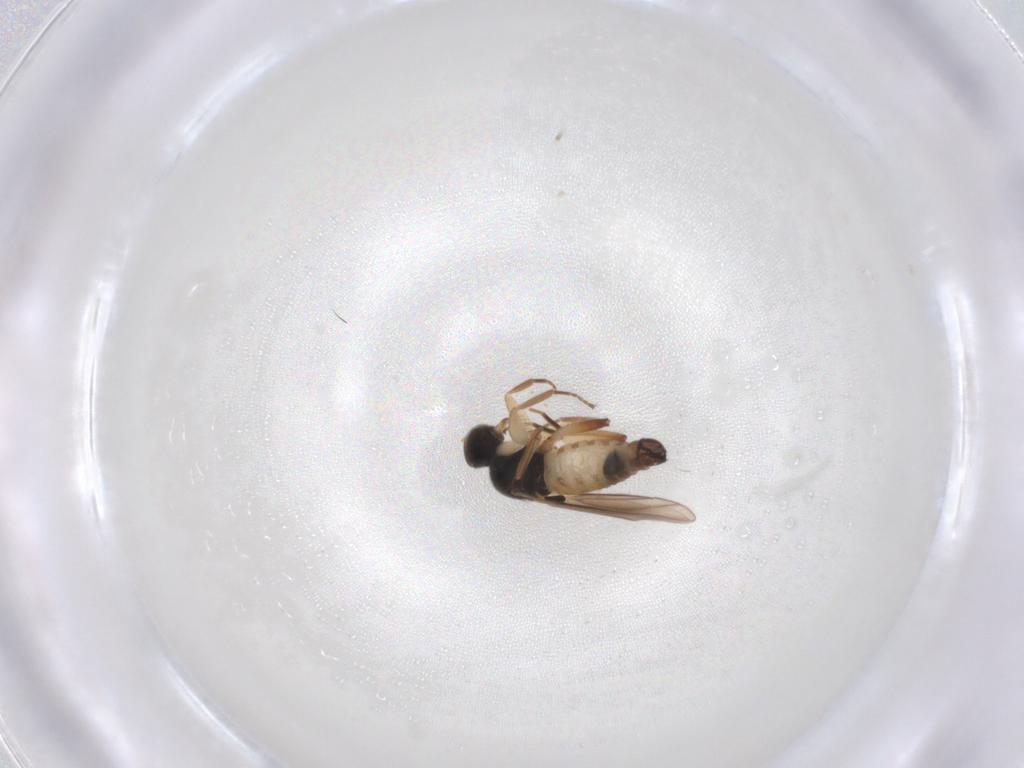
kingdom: Animalia
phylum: Arthropoda
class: Insecta
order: Diptera
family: Hybotidae
